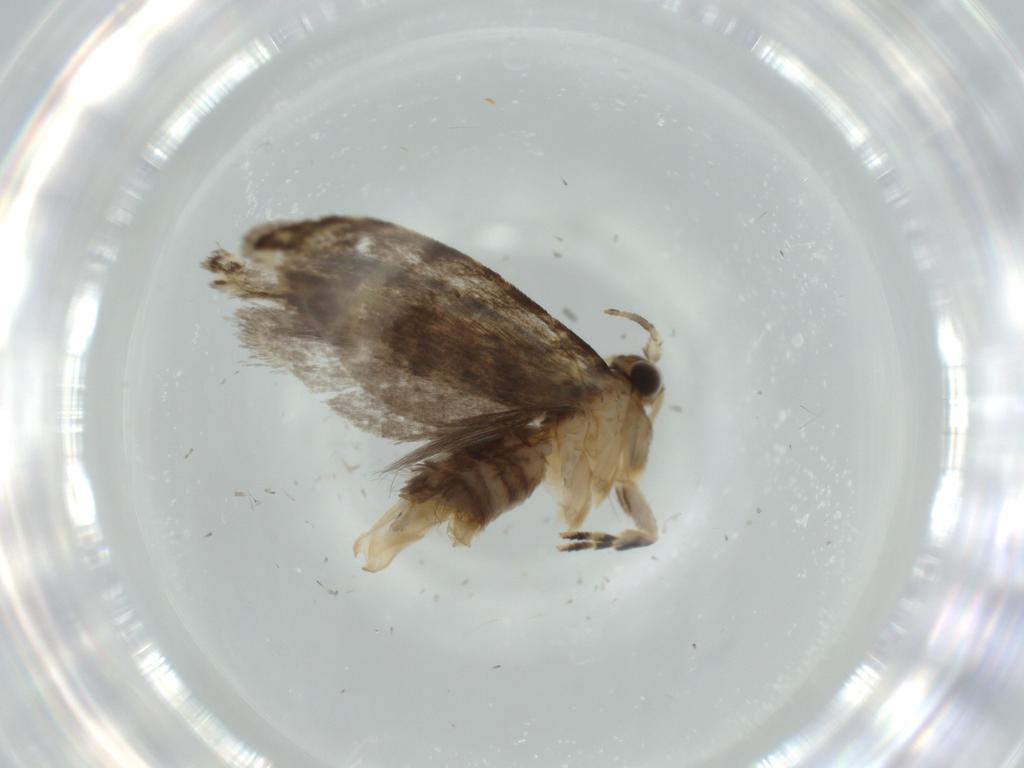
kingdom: Animalia
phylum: Arthropoda
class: Insecta
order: Lepidoptera
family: Tineidae
